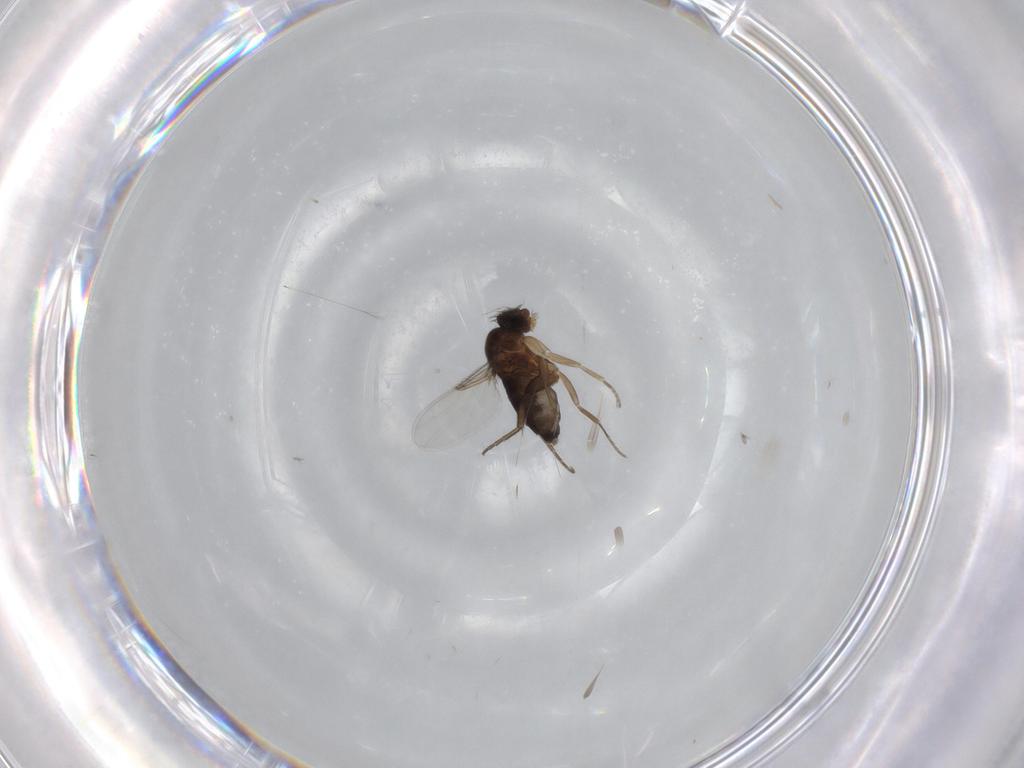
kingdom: Animalia
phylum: Arthropoda
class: Insecta
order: Diptera
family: Phoridae
